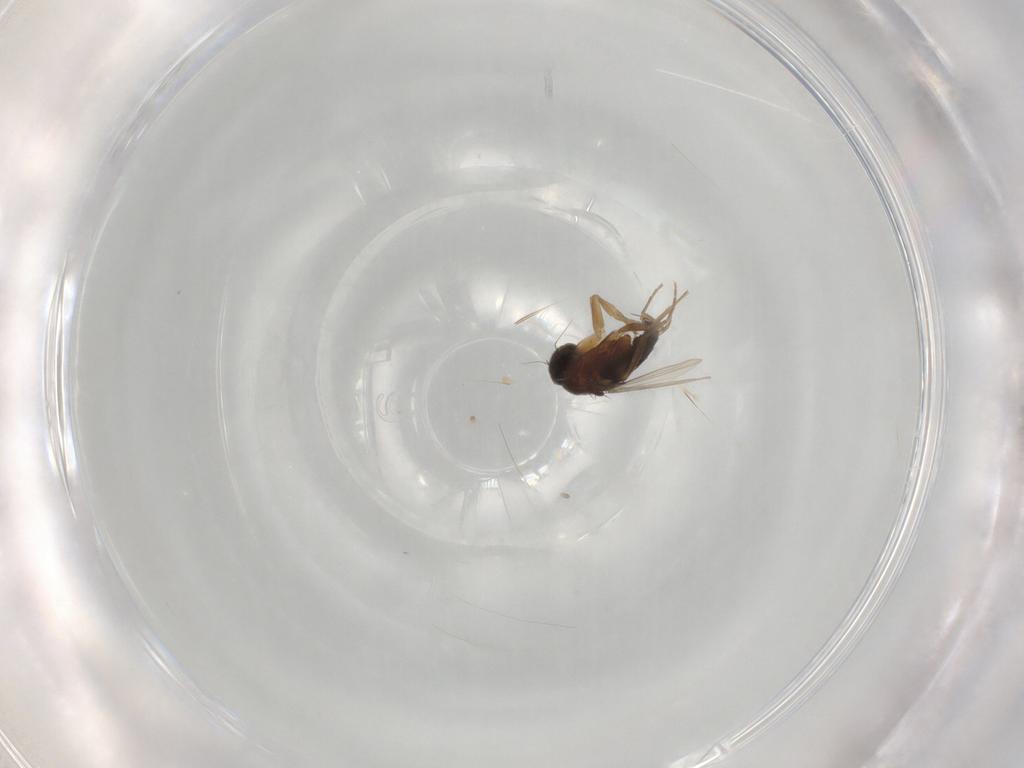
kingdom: Animalia
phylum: Arthropoda
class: Insecta
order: Diptera
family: Phoridae
